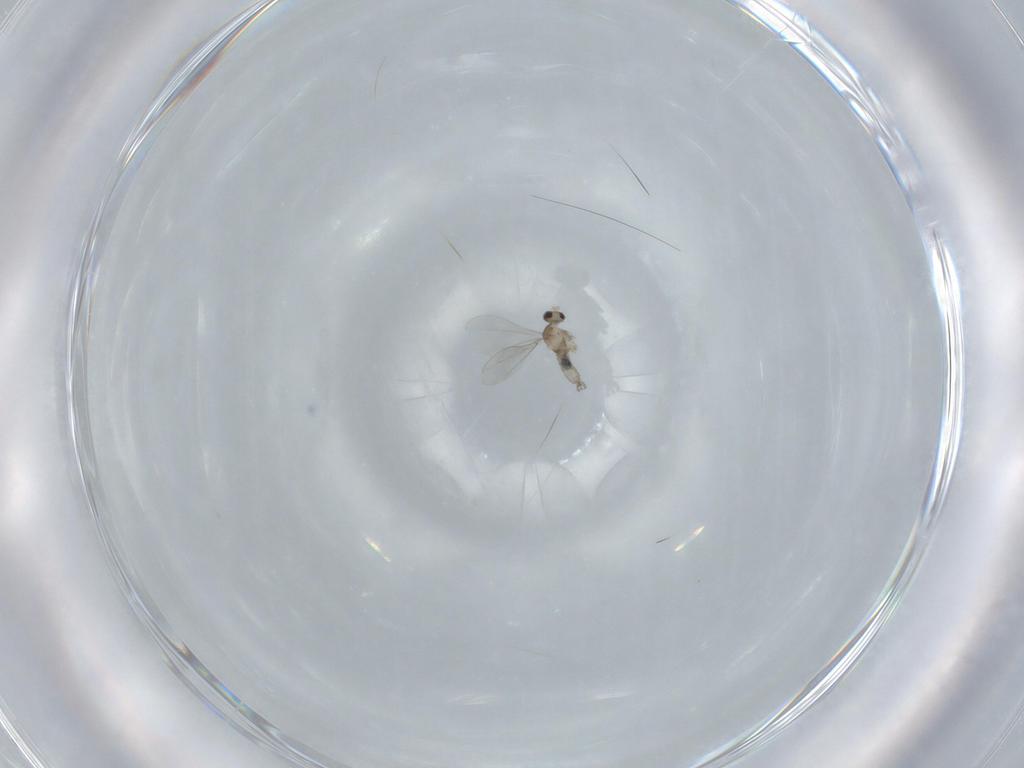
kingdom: Animalia
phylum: Arthropoda
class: Insecta
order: Diptera
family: Cecidomyiidae
